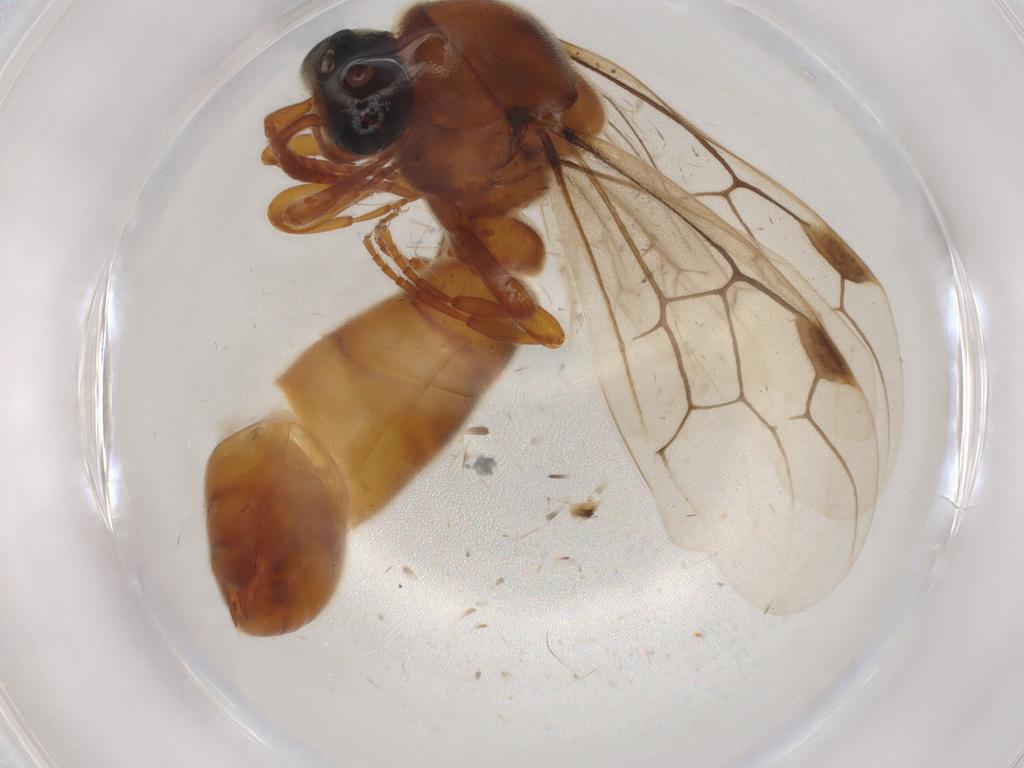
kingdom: Animalia
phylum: Arthropoda
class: Insecta
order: Hymenoptera
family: Formicidae
